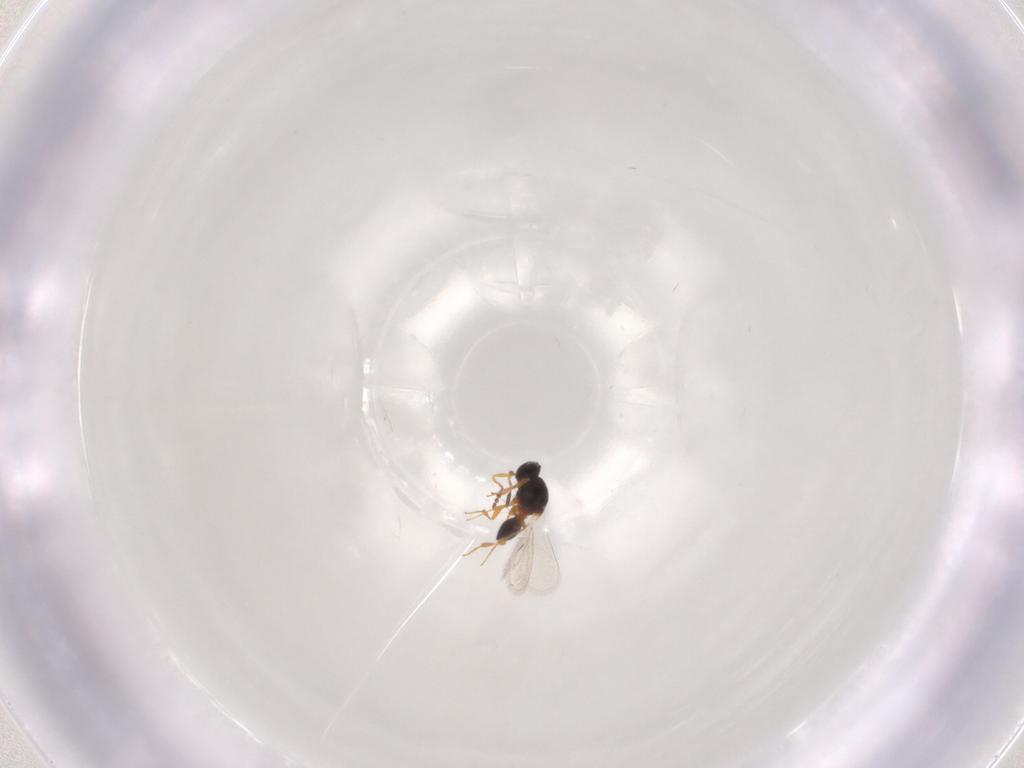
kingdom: Animalia
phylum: Arthropoda
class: Insecta
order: Hymenoptera
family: Platygastridae
